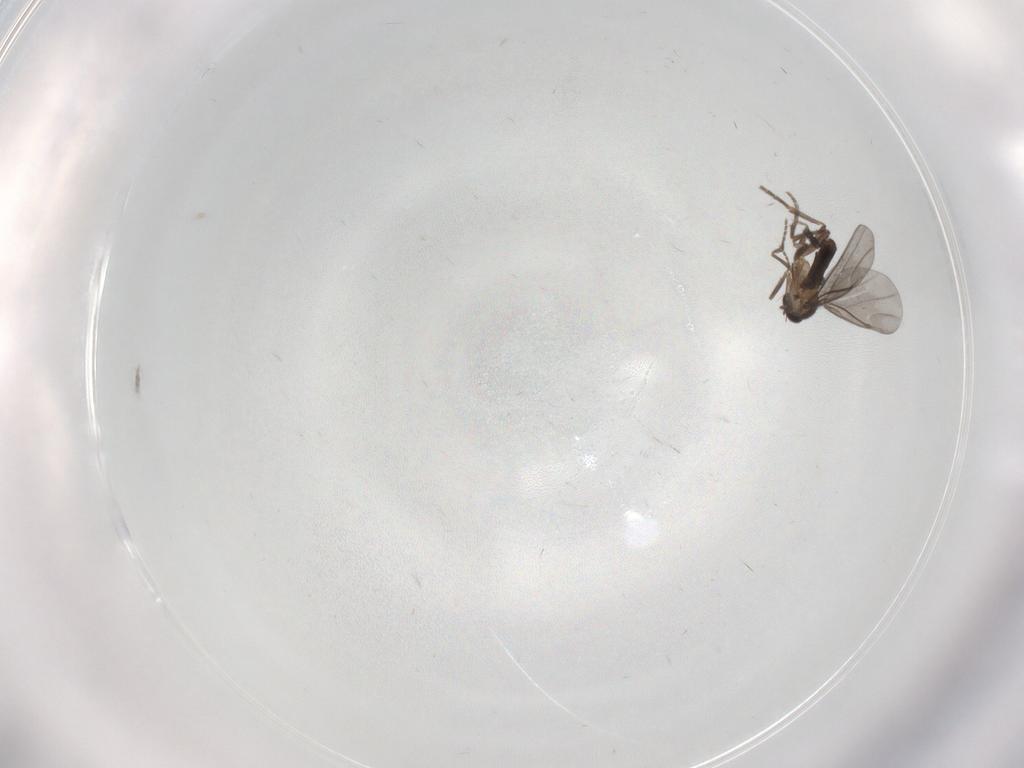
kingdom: Animalia
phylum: Arthropoda
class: Insecta
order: Diptera
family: Phoridae
